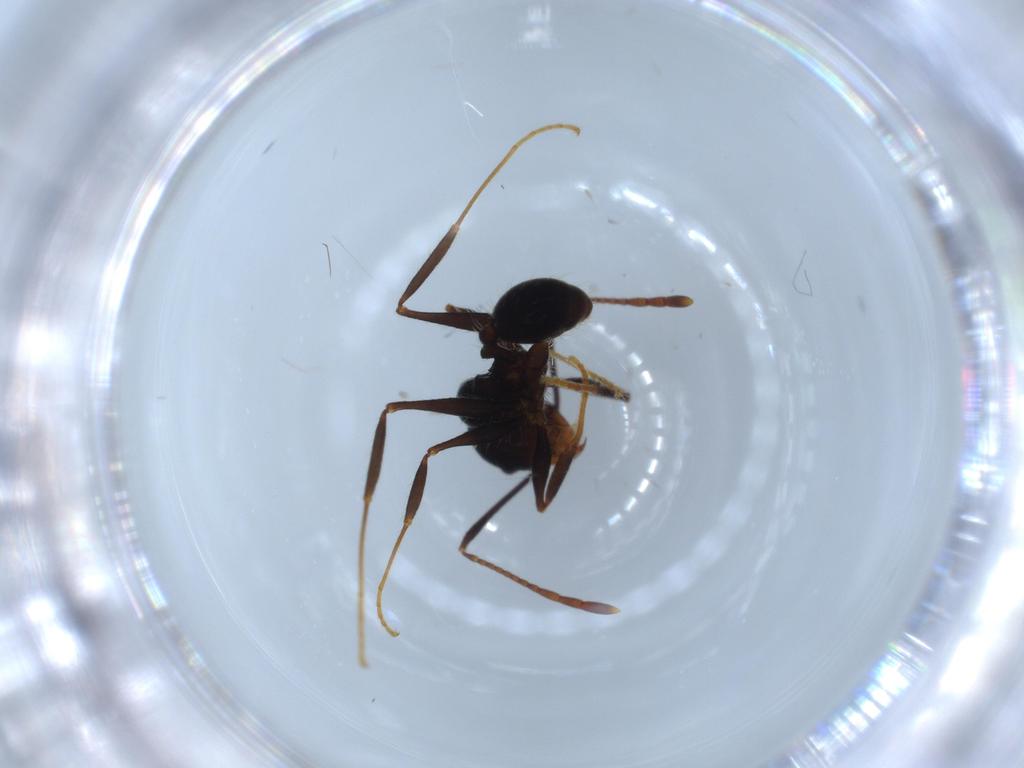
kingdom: Animalia
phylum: Arthropoda
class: Insecta
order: Hymenoptera
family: Formicidae
